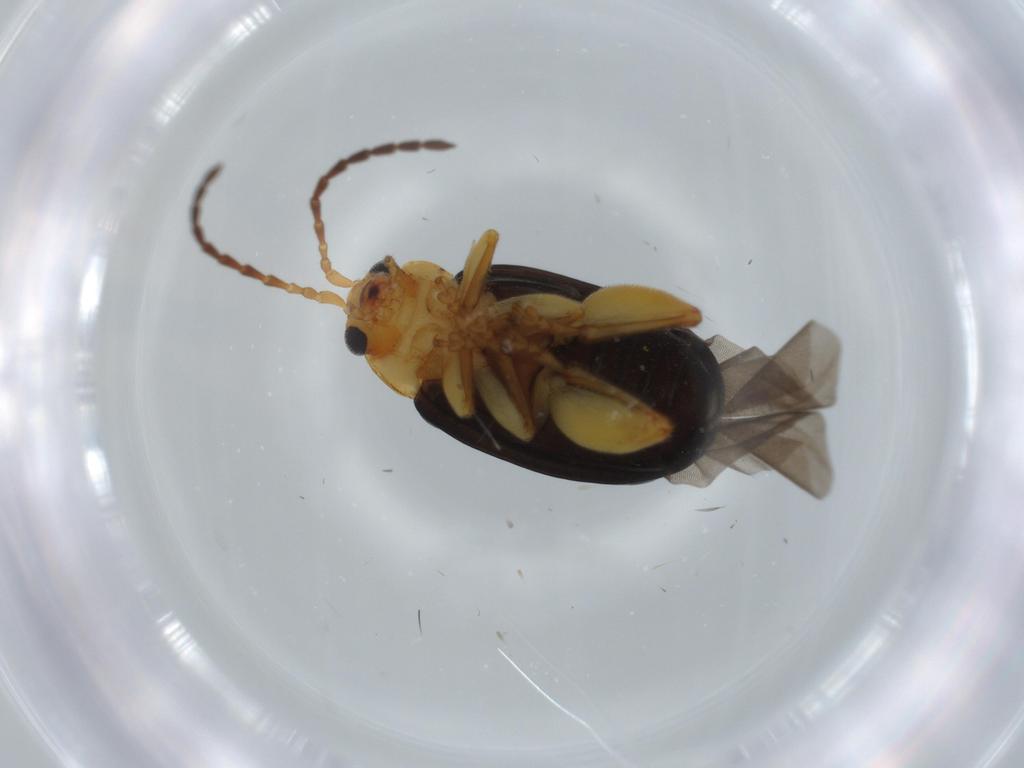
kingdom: Animalia
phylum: Arthropoda
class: Insecta
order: Coleoptera
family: Chrysomelidae
